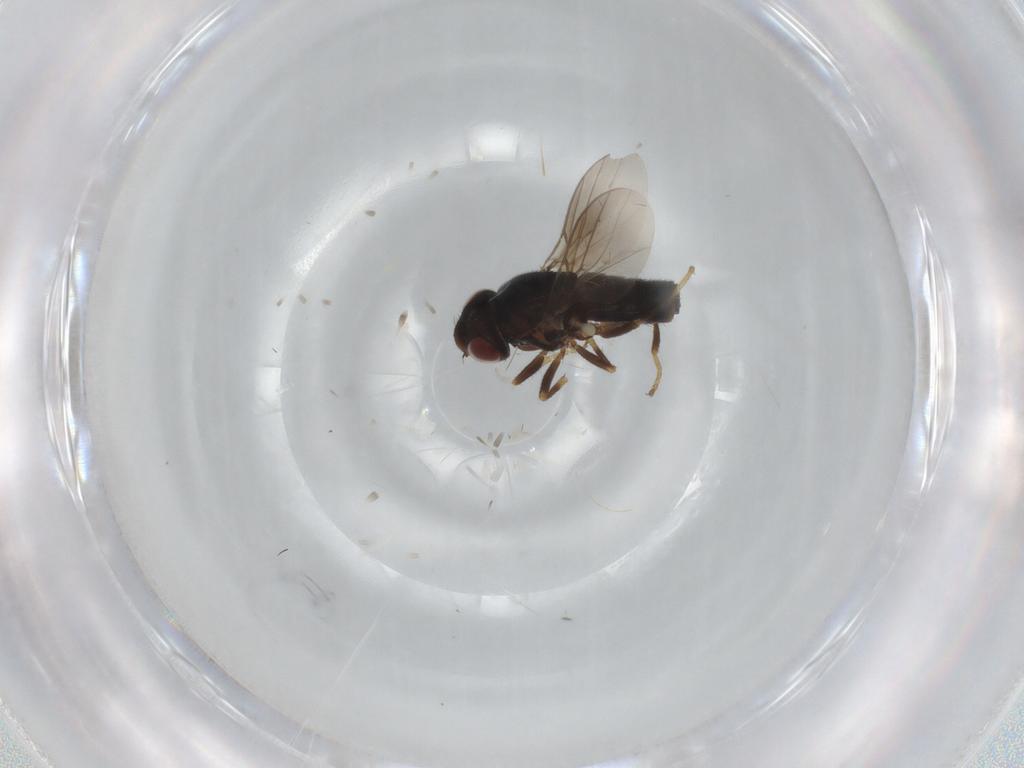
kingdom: Animalia
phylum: Arthropoda
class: Insecta
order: Diptera
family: Chloropidae
